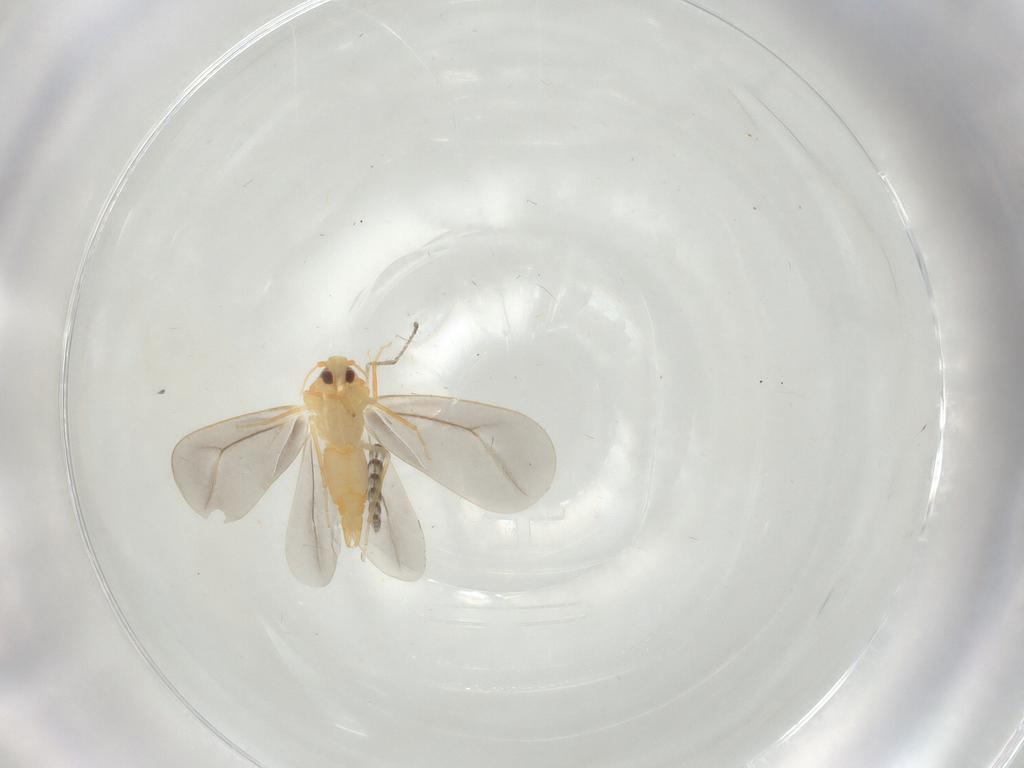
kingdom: Animalia
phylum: Arthropoda
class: Insecta
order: Hemiptera
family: Aleyrodidae
